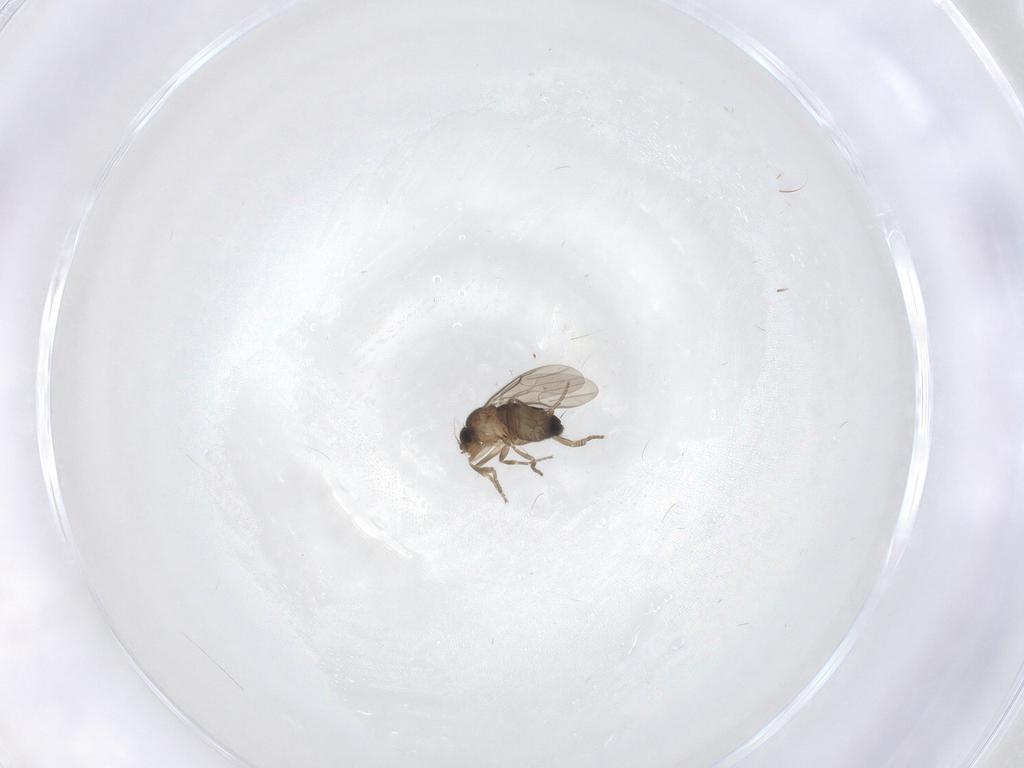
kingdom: Animalia
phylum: Arthropoda
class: Insecta
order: Diptera
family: Phoridae
